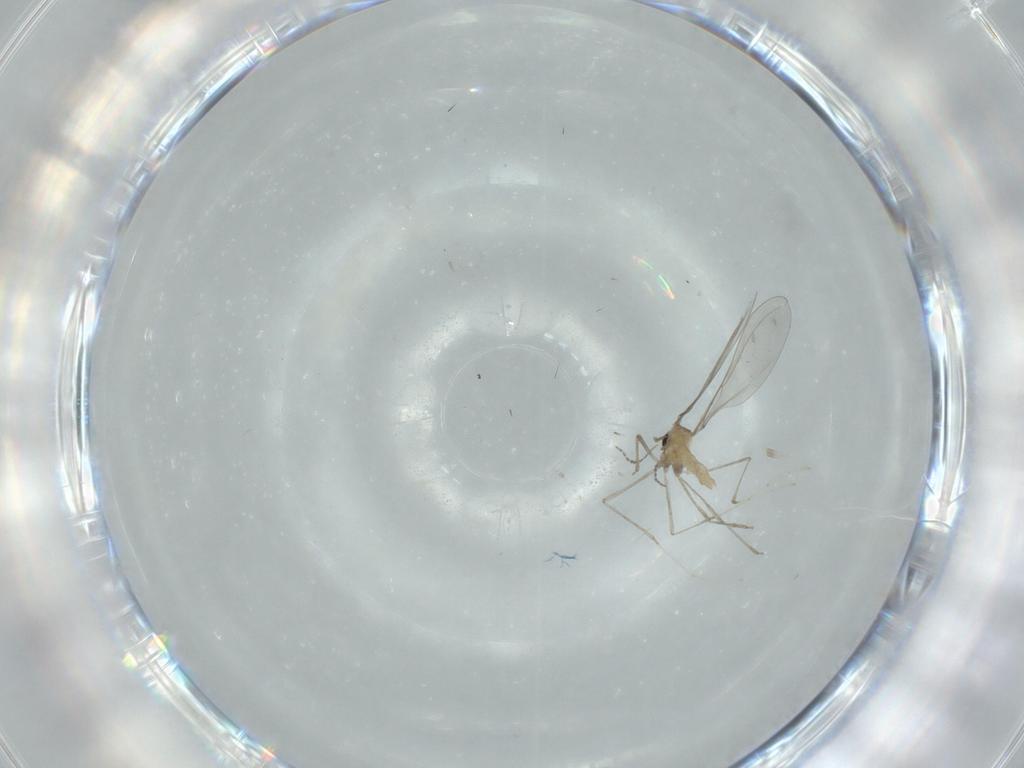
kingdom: Animalia
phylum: Arthropoda
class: Insecta
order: Diptera
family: Cecidomyiidae
